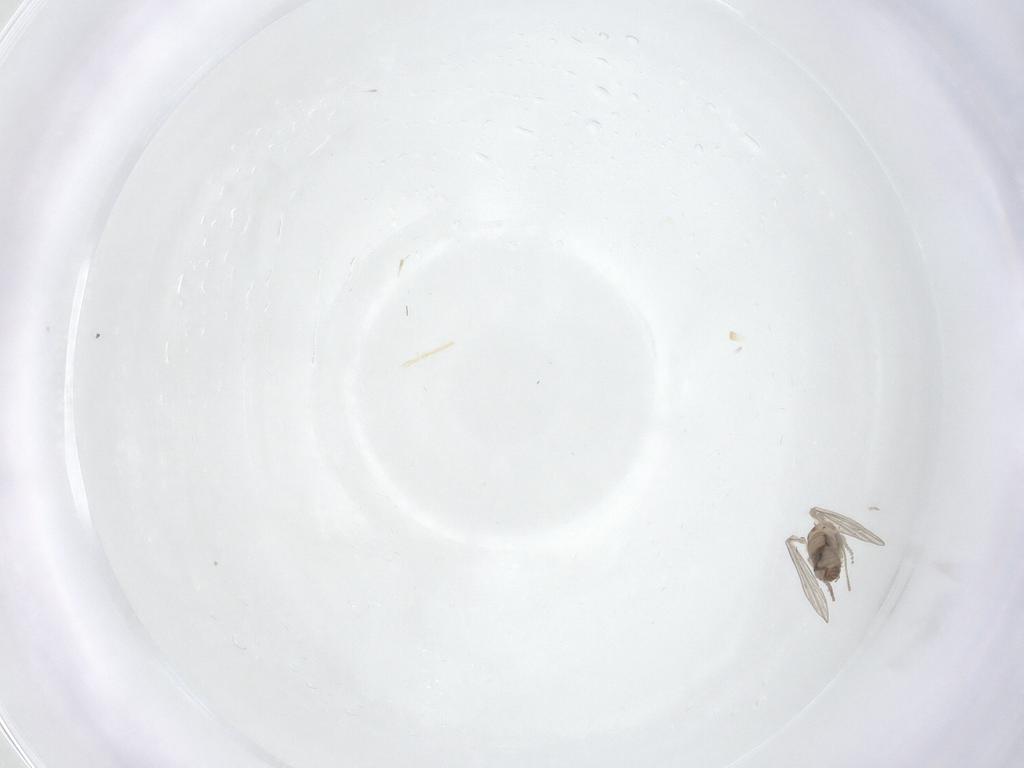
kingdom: Animalia
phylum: Arthropoda
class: Insecta
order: Diptera
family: Psychodidae
